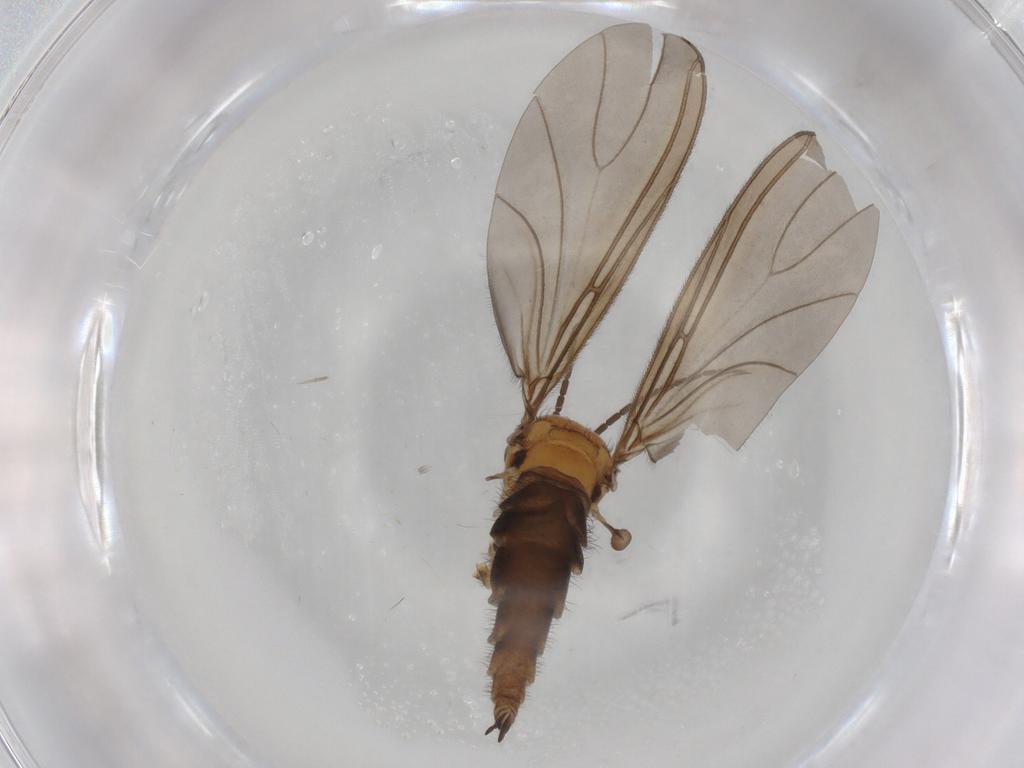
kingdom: Animalia
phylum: Arthropoda
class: Insecta
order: Diptera
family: Sciaridae
